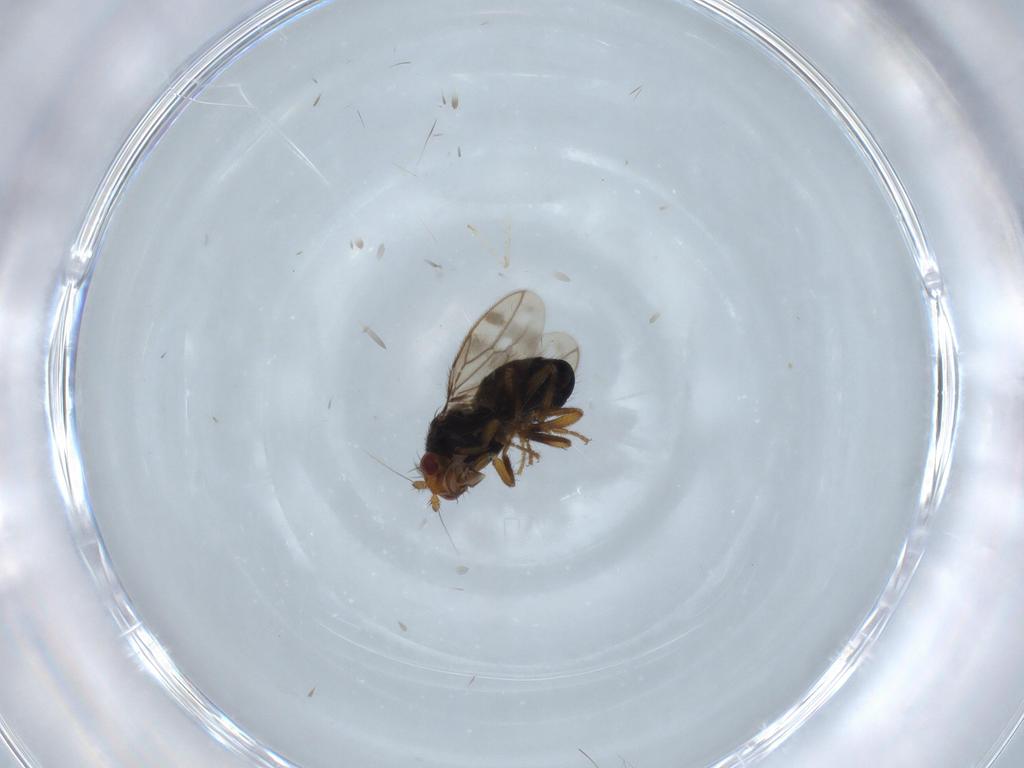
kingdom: Animalia
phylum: Arthropoda
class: Insecta
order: Diptera
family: Sphaeroceridae
